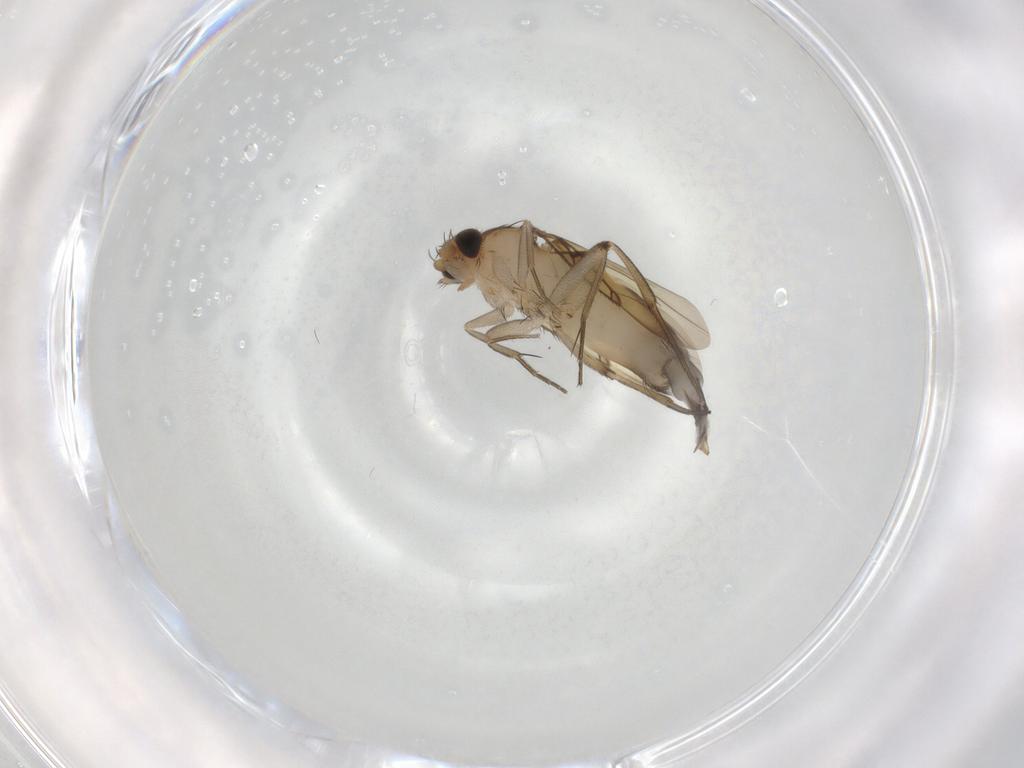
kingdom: Animalia
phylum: Arthropoda
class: Insecta
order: Diptera
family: Phoridae
